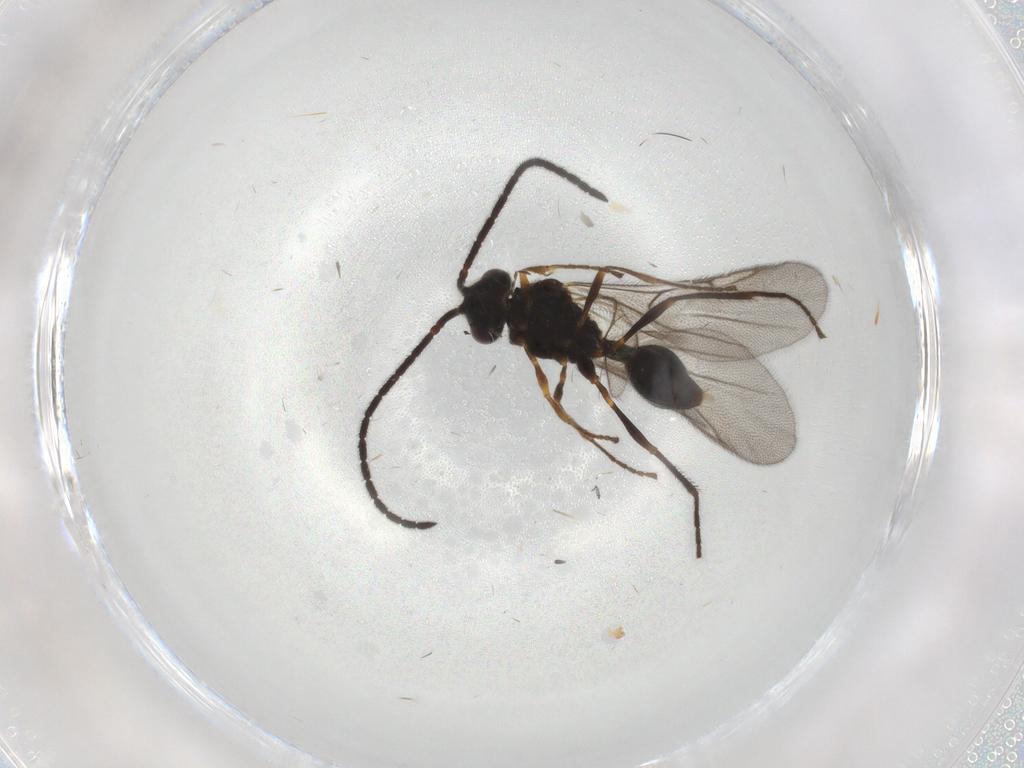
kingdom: Animalia
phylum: Arthropoda
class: Insecta
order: Hymenoptera
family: Diapriidae
